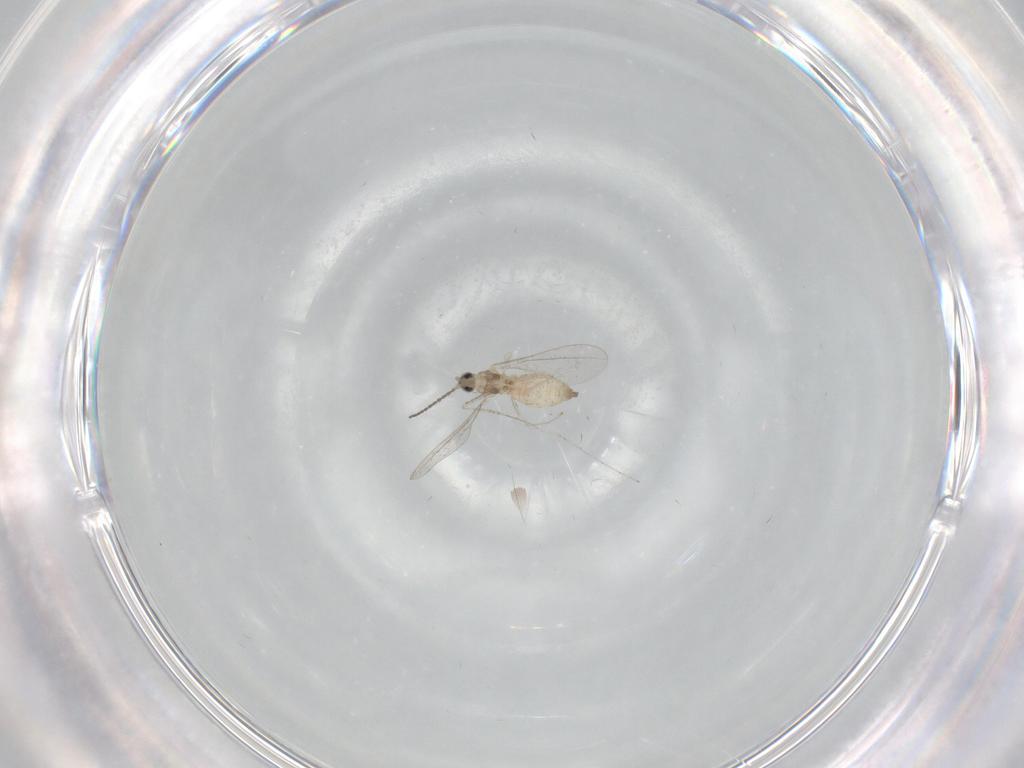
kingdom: Animalia
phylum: Arthropoda
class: Insecta
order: Diptera
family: Cecidomyiidae
